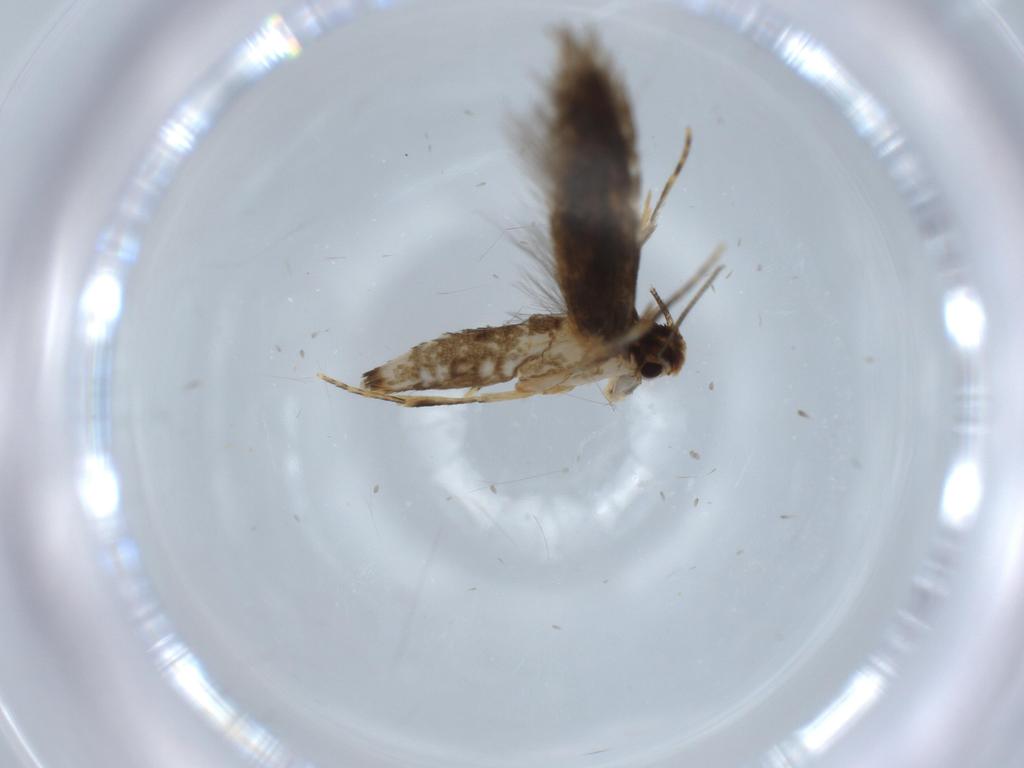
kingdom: Animalia
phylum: Arthropoda
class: Insecta
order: Lepidoptera
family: Tineidae
